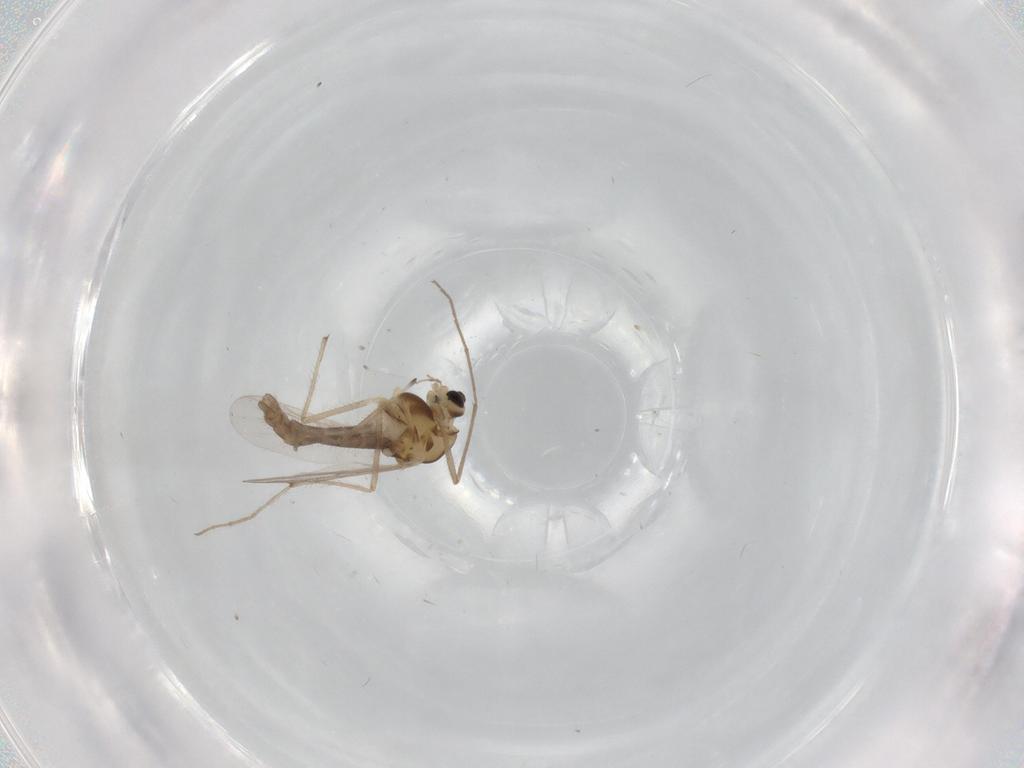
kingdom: Animalia
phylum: Arthropoda
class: Insecta
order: Diptera
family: Chironomidae
